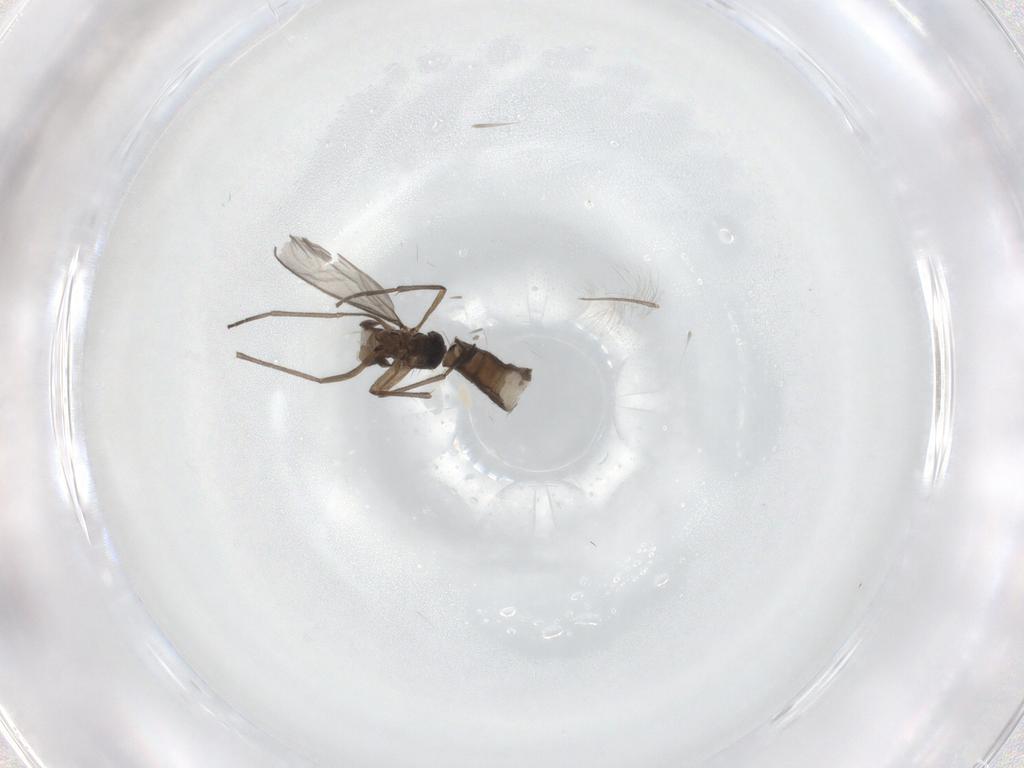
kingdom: Animalia
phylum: Arthropoda
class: Insecta
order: Diptera
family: Chironomidae
